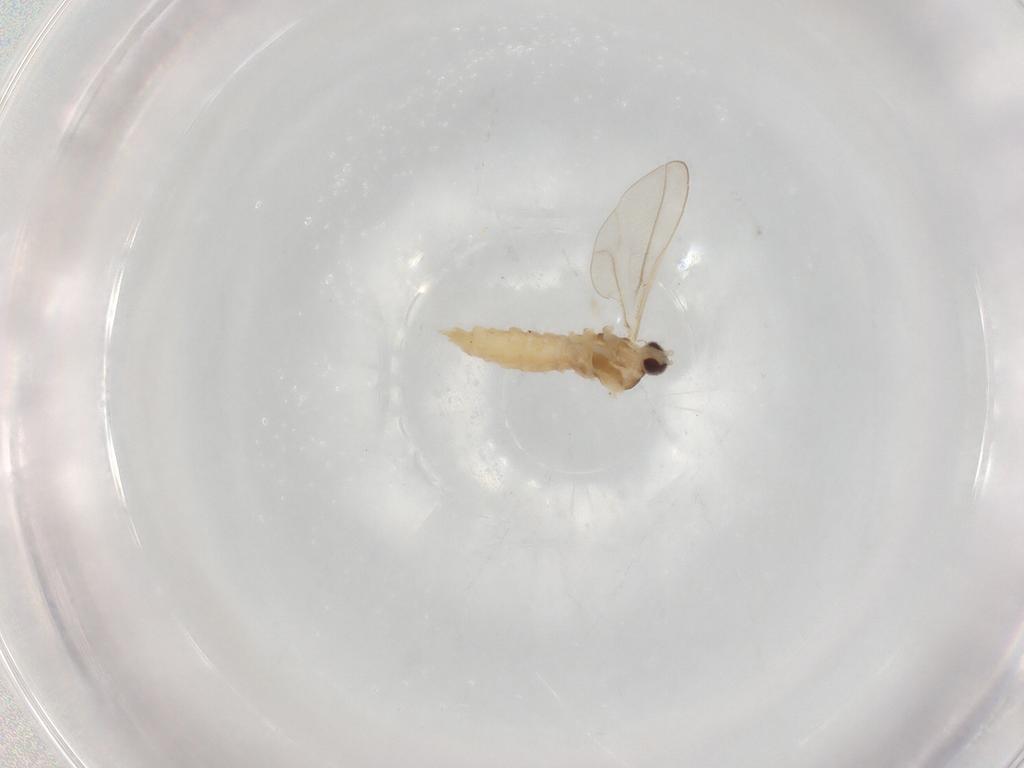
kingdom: Animalia
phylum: Arthropoda
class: Insecta
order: Diptera
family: Cecidomyiidae
